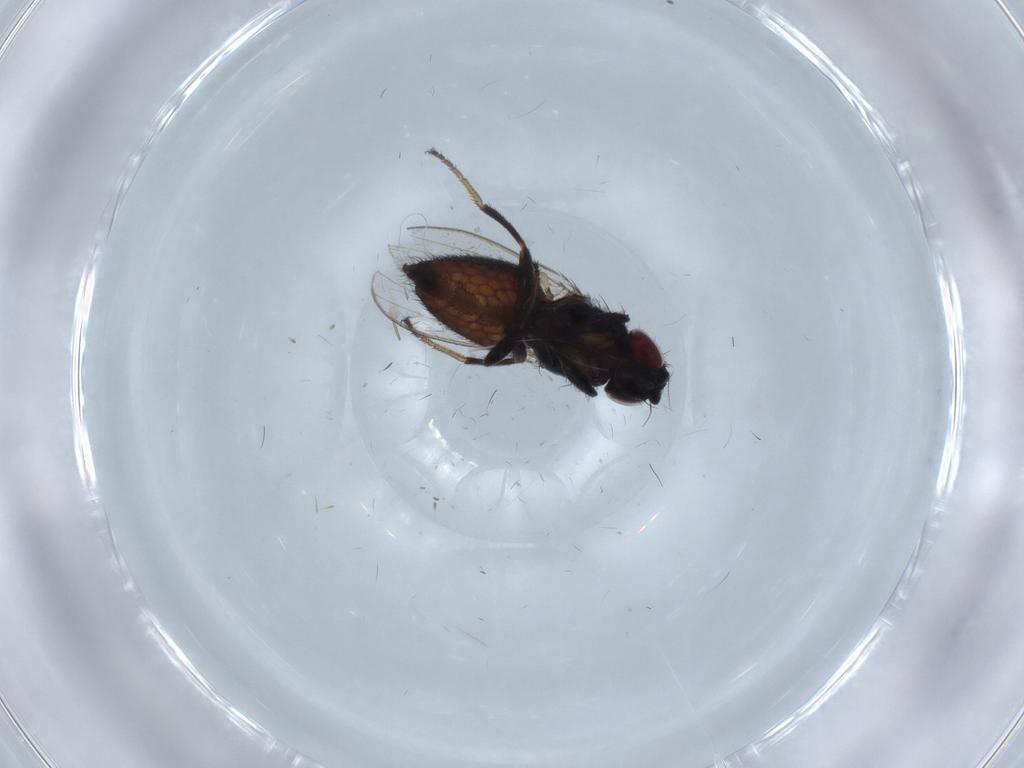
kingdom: Animalia
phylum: Arthropoda
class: Insecta
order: Diptera
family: Milichiidae
